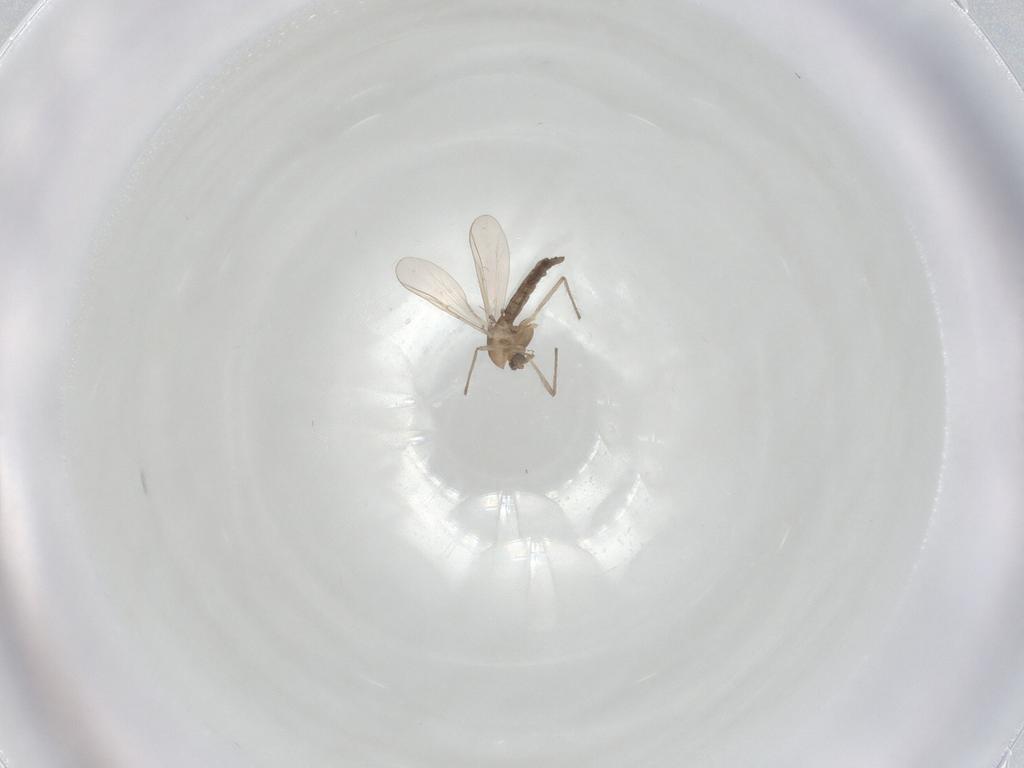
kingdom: Animalia
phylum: Arthropoda
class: Insecta
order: Diptera
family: Chironomidae
